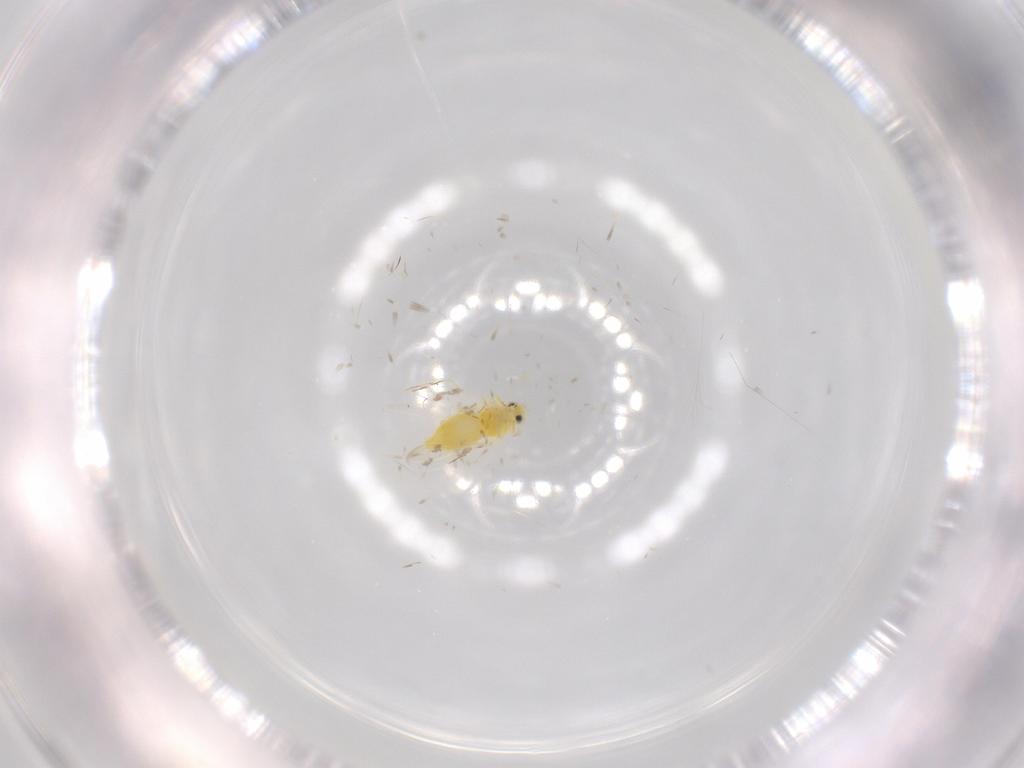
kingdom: Animalia
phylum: Arthropoda
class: Insecta
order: Hemiptera
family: Aleyrodidae
